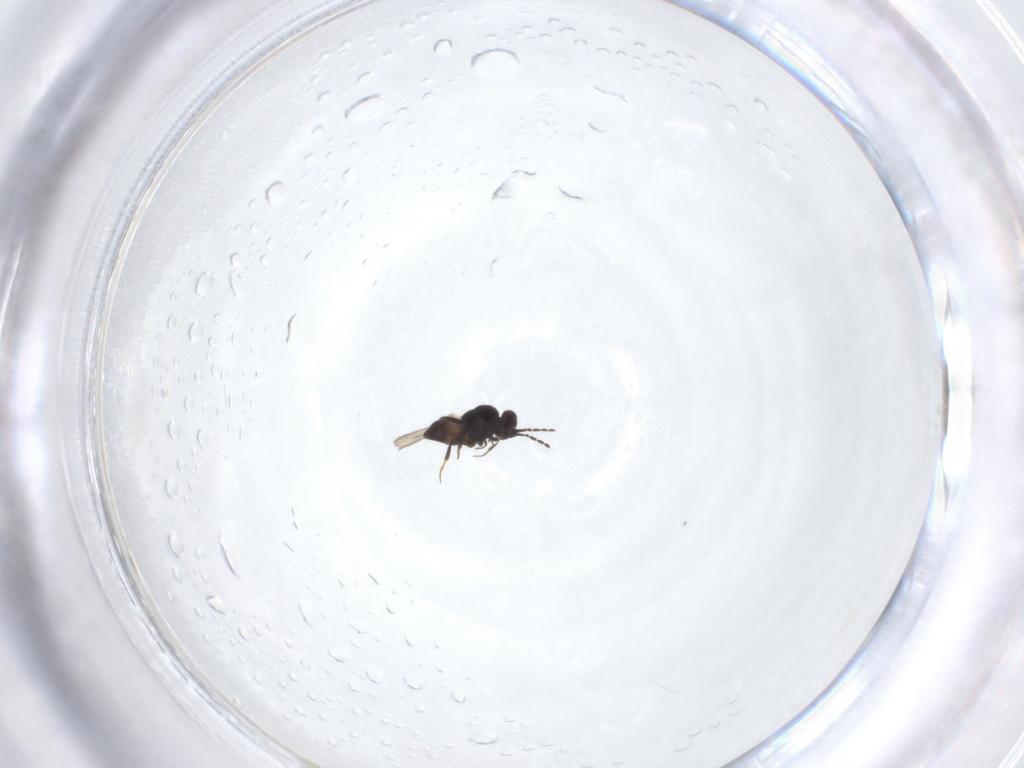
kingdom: Animalia
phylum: Arthropoda
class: Insecta
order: Hymenoptera
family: Ceraphronidae
